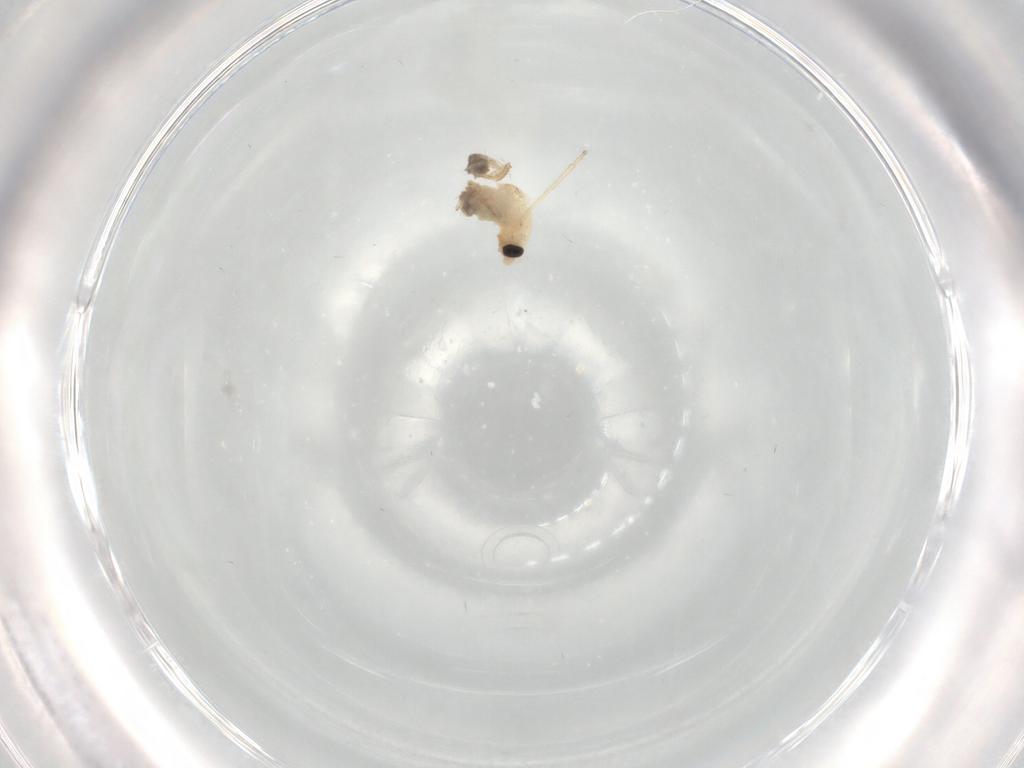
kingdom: Animalia
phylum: Arthropoda
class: Insecta
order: Diptera
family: Chironomidae
